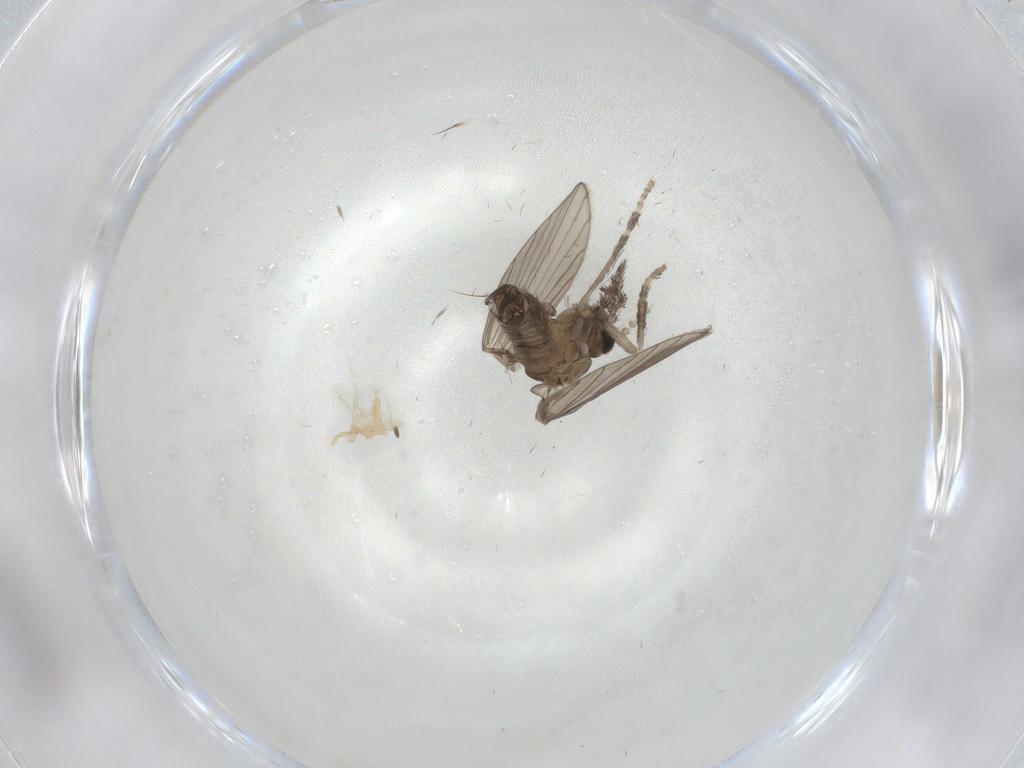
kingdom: Animalia
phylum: Arthropoda
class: Insecta
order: Diptera
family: Psychodidae
